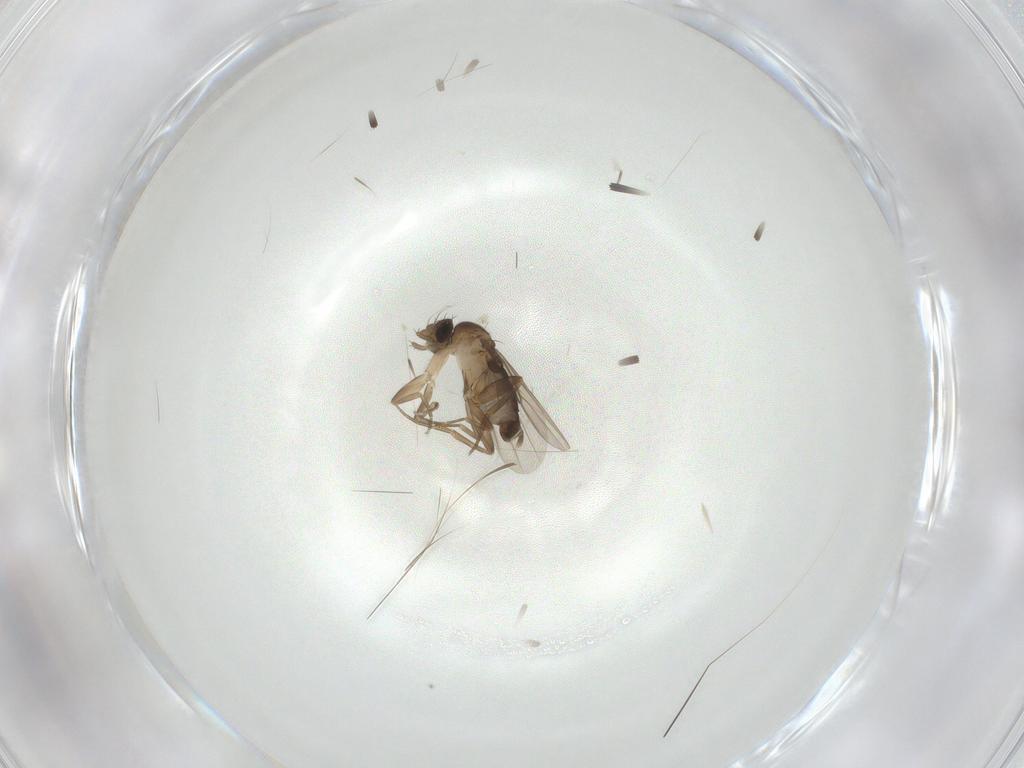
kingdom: Animalia
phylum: Arthropoda
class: Insecta
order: Diptera
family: Phoridae
